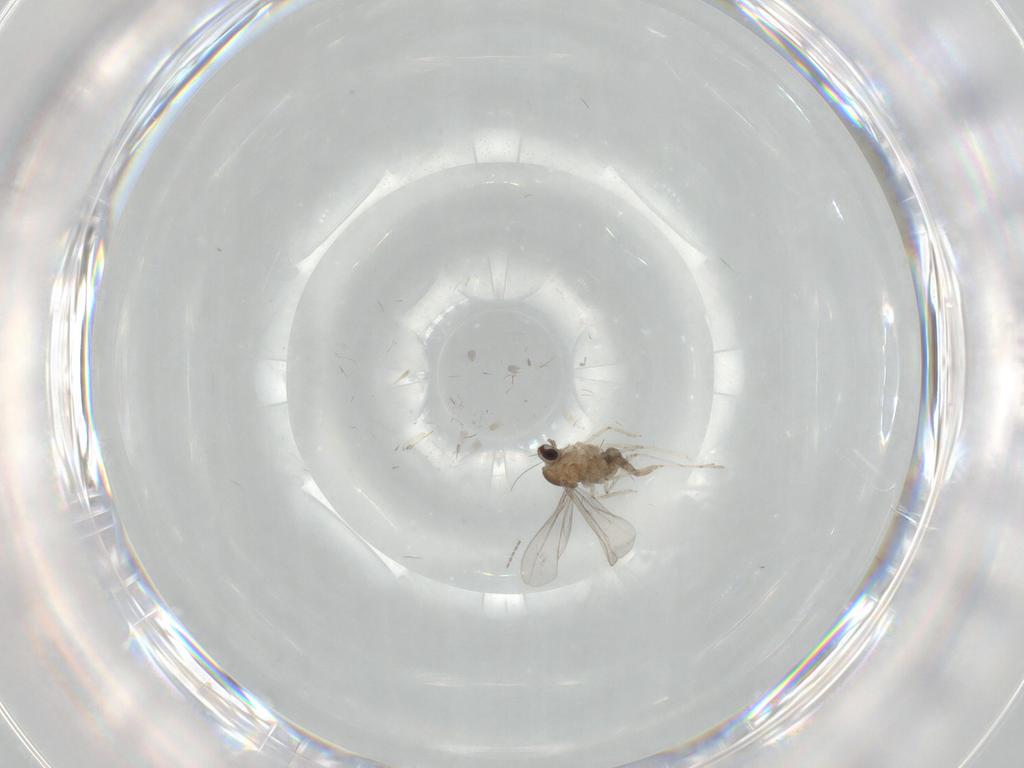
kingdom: Animalia
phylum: Arthropoda
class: Insecta
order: Diptera
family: Cecidomyiidae
